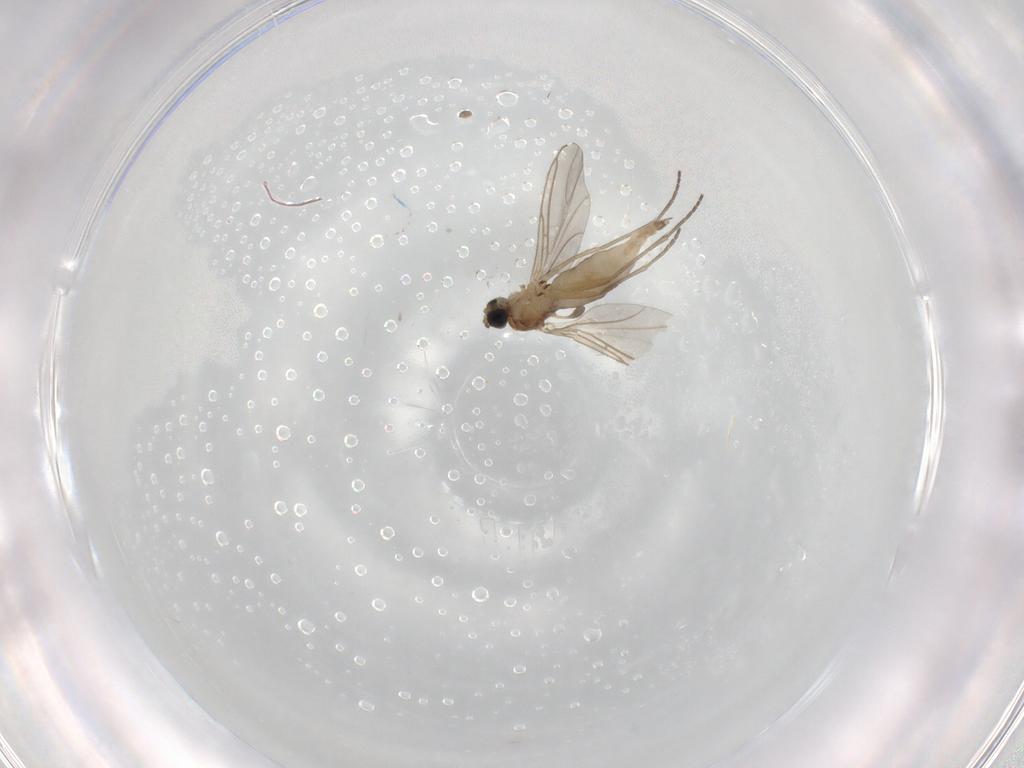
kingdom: Animalia
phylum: Arthropoda
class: Insecta
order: Diptera
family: Sciaridae
